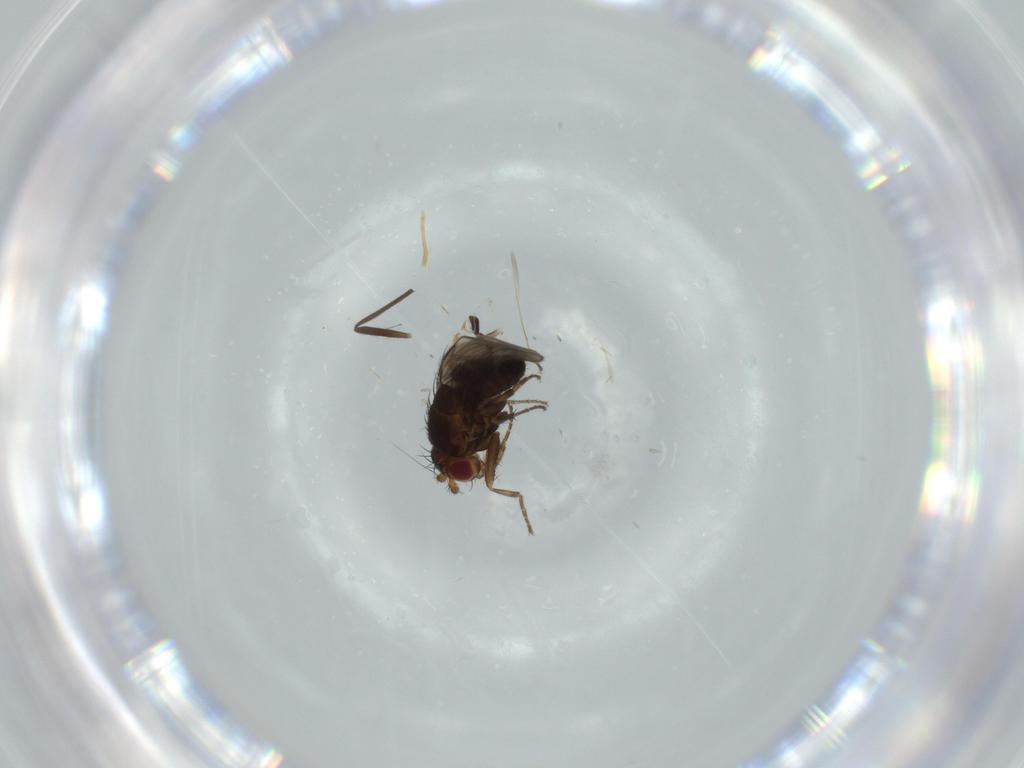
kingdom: Animalia
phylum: Arthropoda
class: Insecta
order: Diptera
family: Sphaeroceridae
